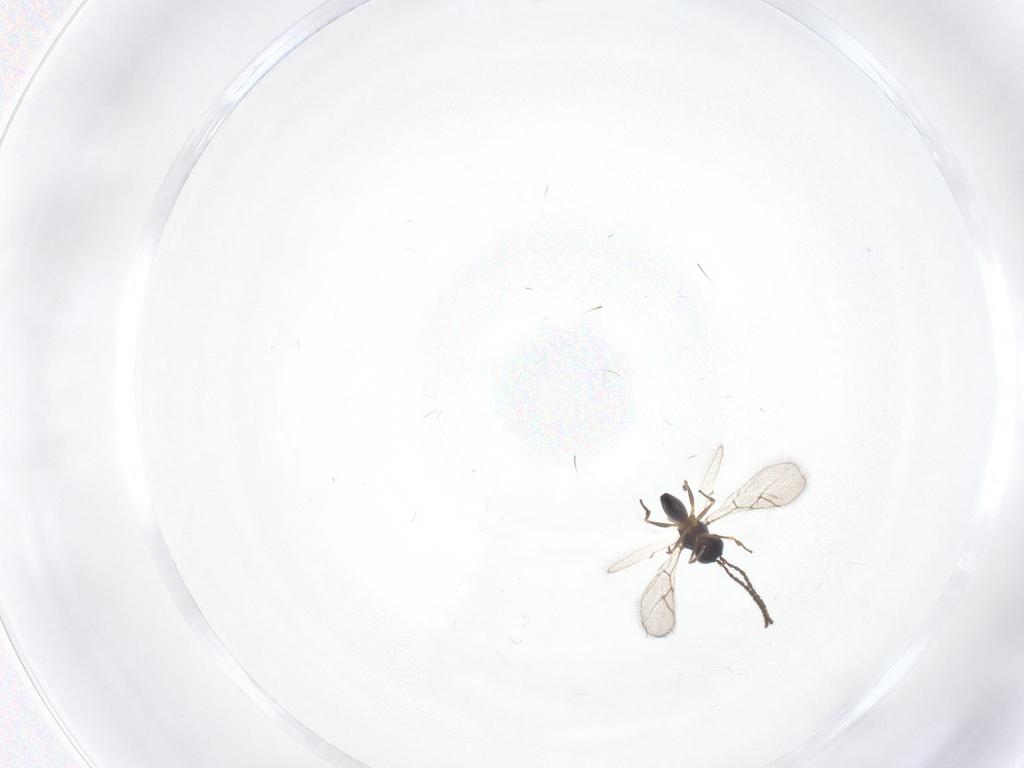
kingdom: Animalia
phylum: Arthropoda
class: Insecta
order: Hymenoptera
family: Figitidae
